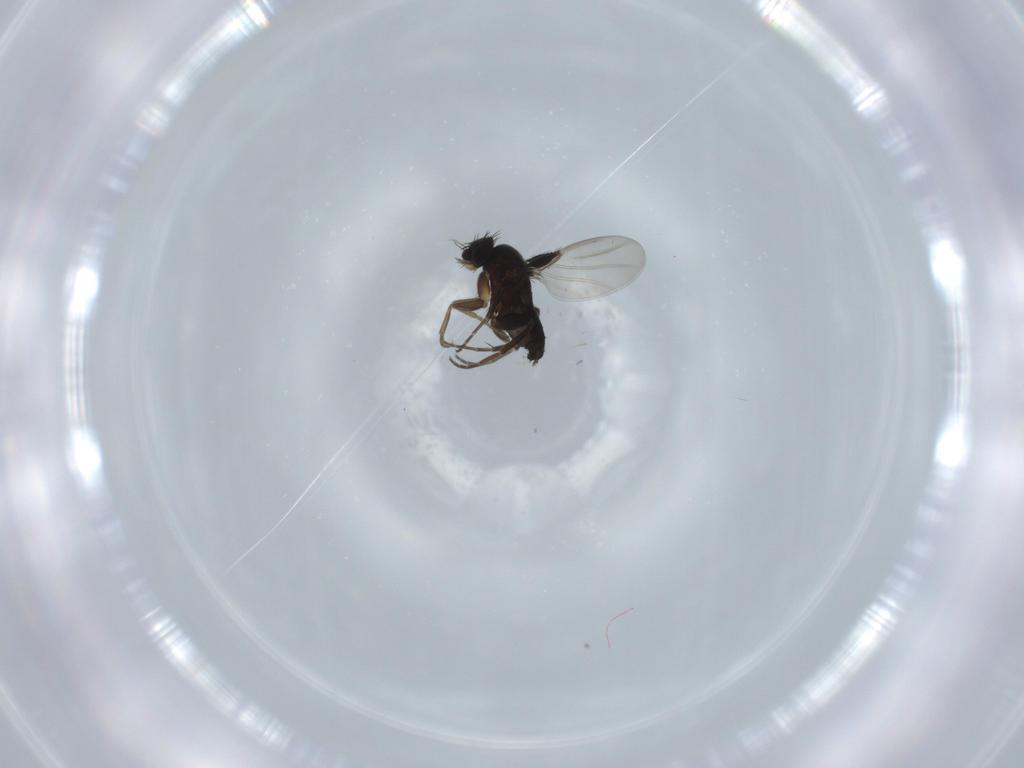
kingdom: Animalia
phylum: Arthropoda
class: Insecta
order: Diptera
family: Phoridae
